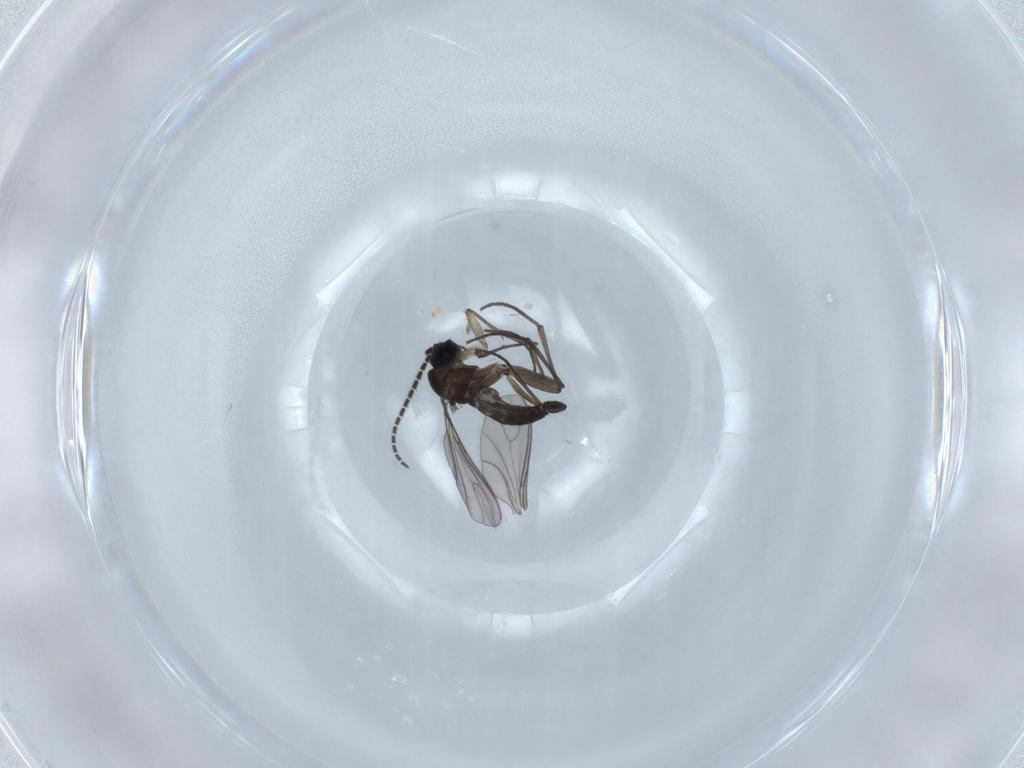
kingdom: Animalia
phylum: Arthropoda
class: Insecta
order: Diptera
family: Sciaridae
